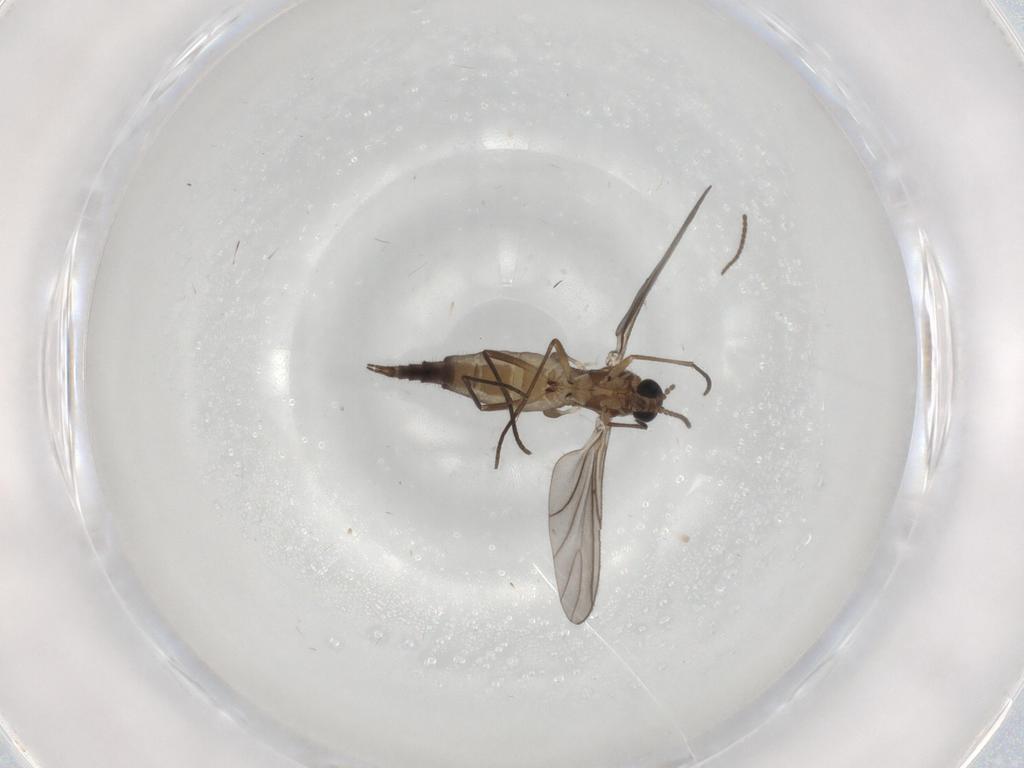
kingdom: Animalia
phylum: Arthropoda
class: Insecta
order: Diptera
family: Sciaridae
